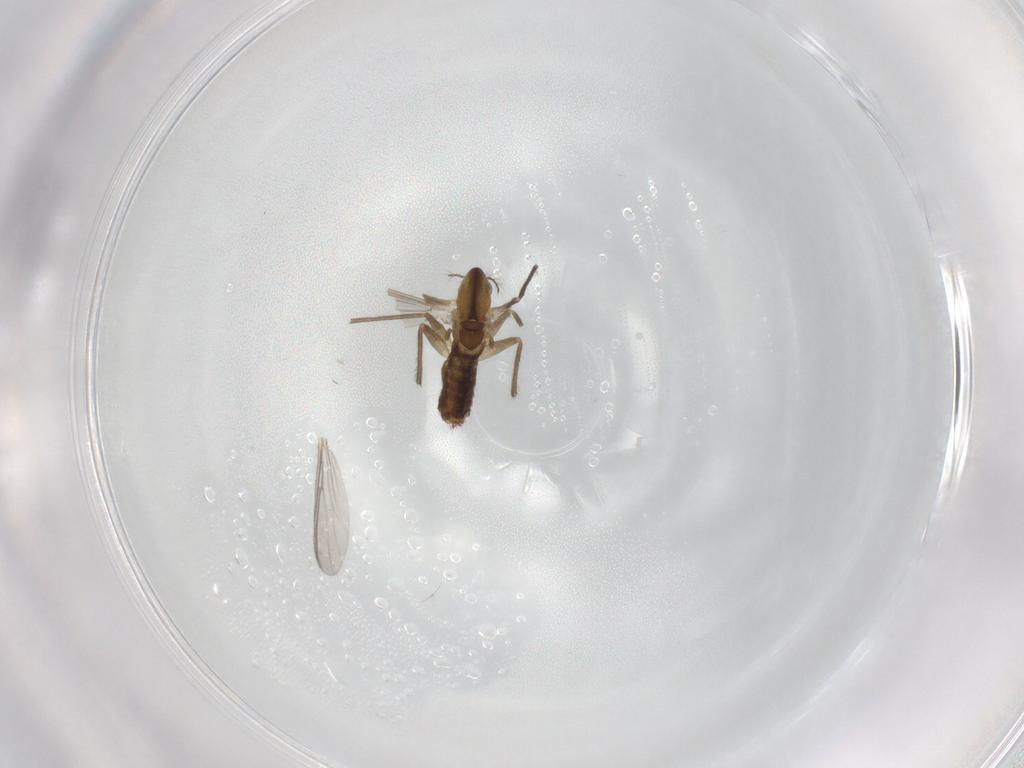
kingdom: Animalia
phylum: Arthropoda
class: Insecta
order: Diptera
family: Chironomidae
